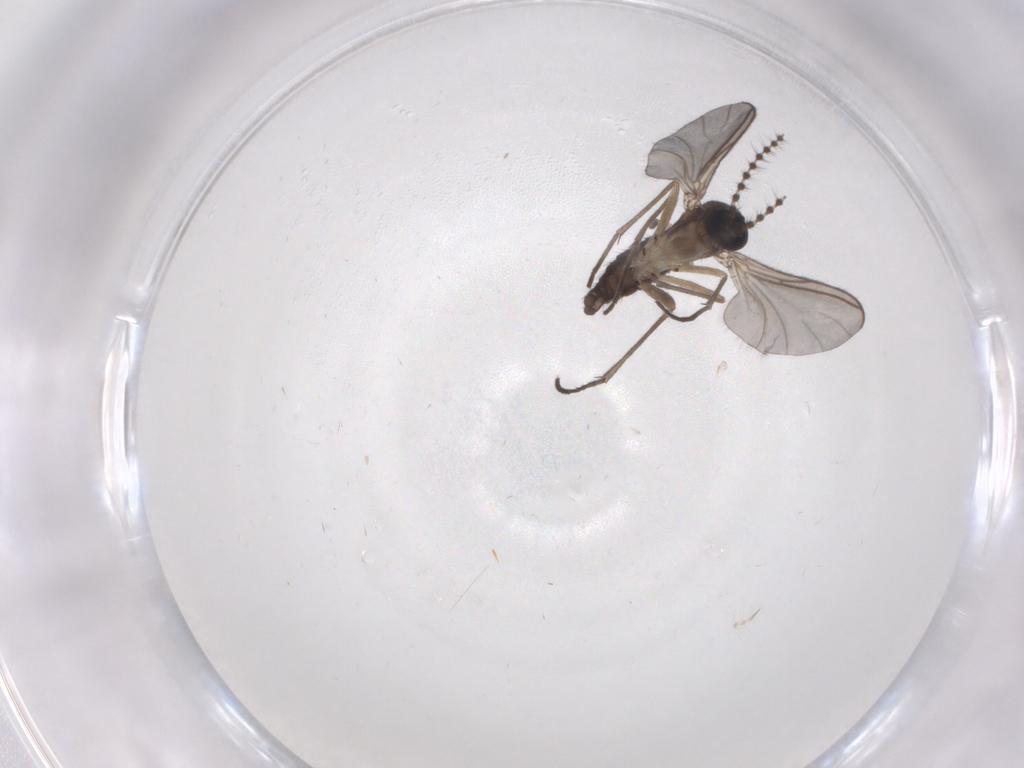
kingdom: Animalia
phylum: Arthropoda
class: Insecta
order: Diptera
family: Sciaridae
